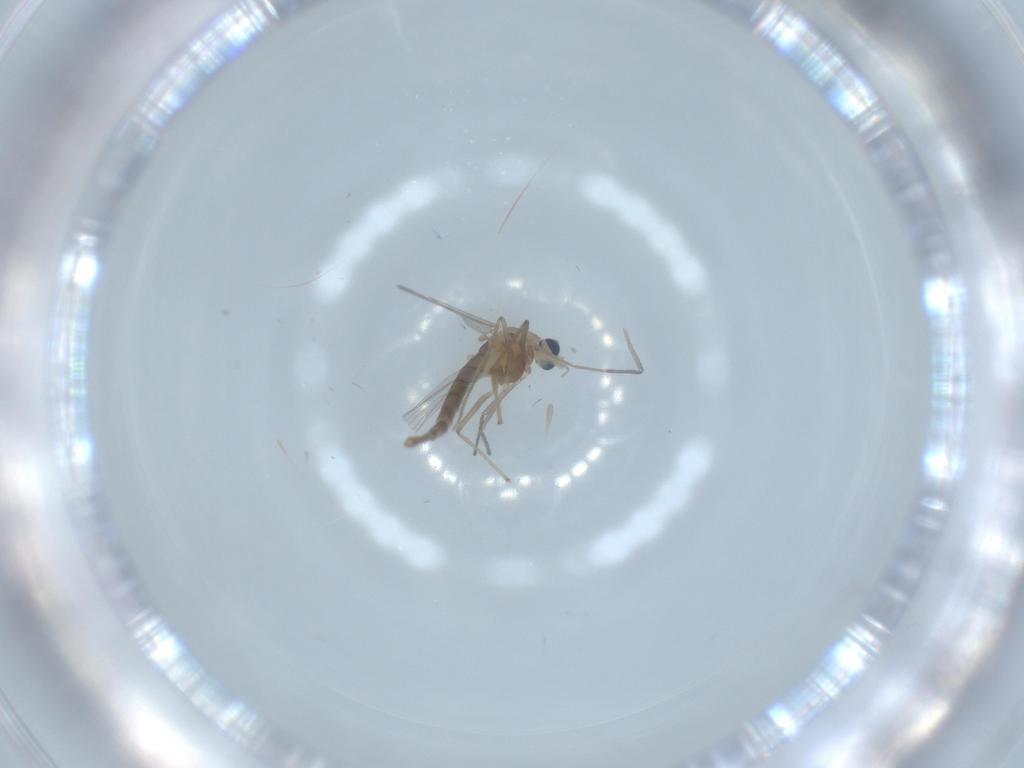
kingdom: Animalia
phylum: Arthropoda
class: Insecta
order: Diptera
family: Chironomidae
